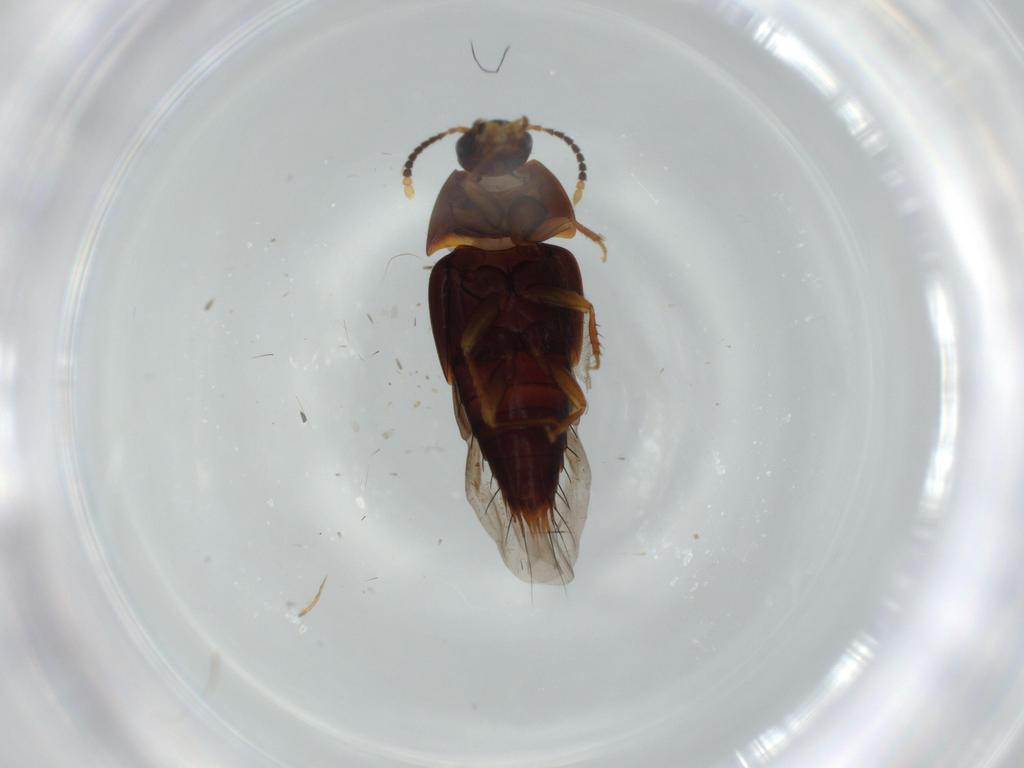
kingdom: Animalia
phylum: Arthropoda
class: Insecta
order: Coleoptera
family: Scarabaeidae
